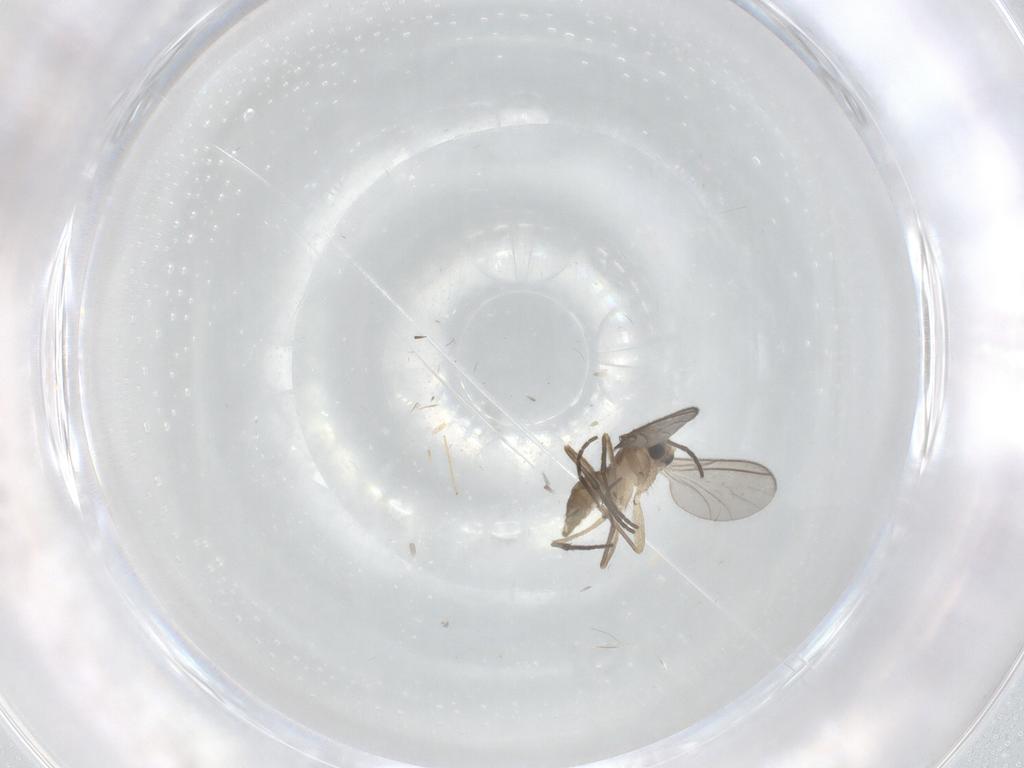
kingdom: Animalia
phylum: Arthropoda
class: Insecta
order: Diptera
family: Sciaridae
